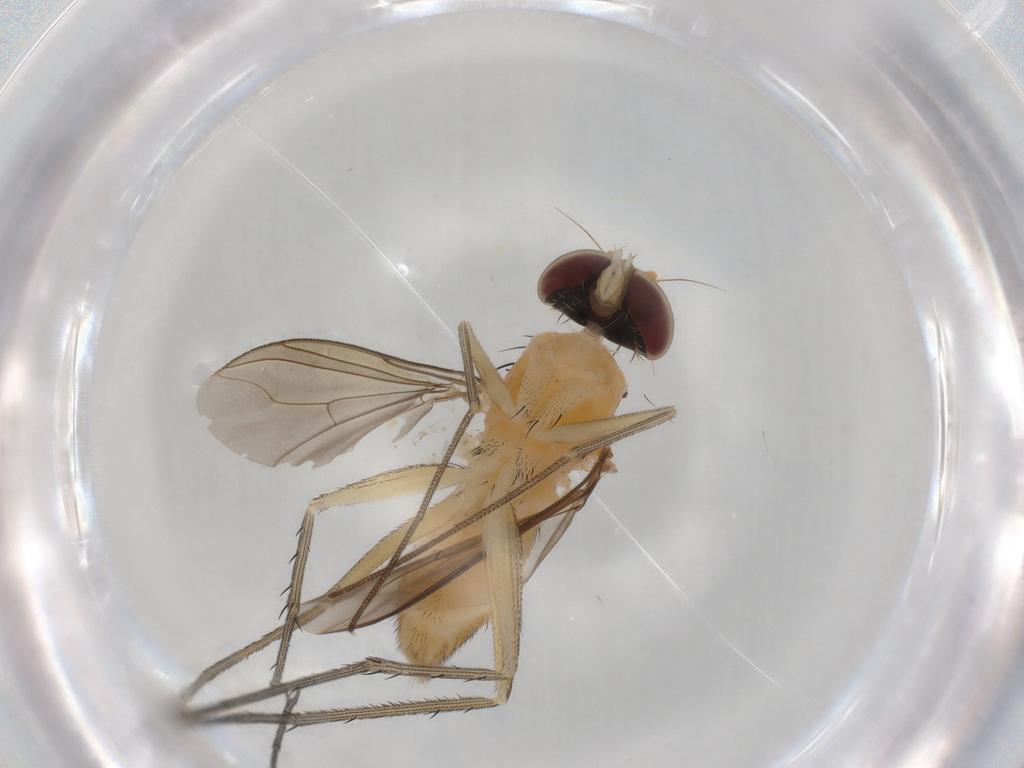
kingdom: Animalia
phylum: Arthropoda
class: Insecta
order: Diptera
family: Dolichopodidae
